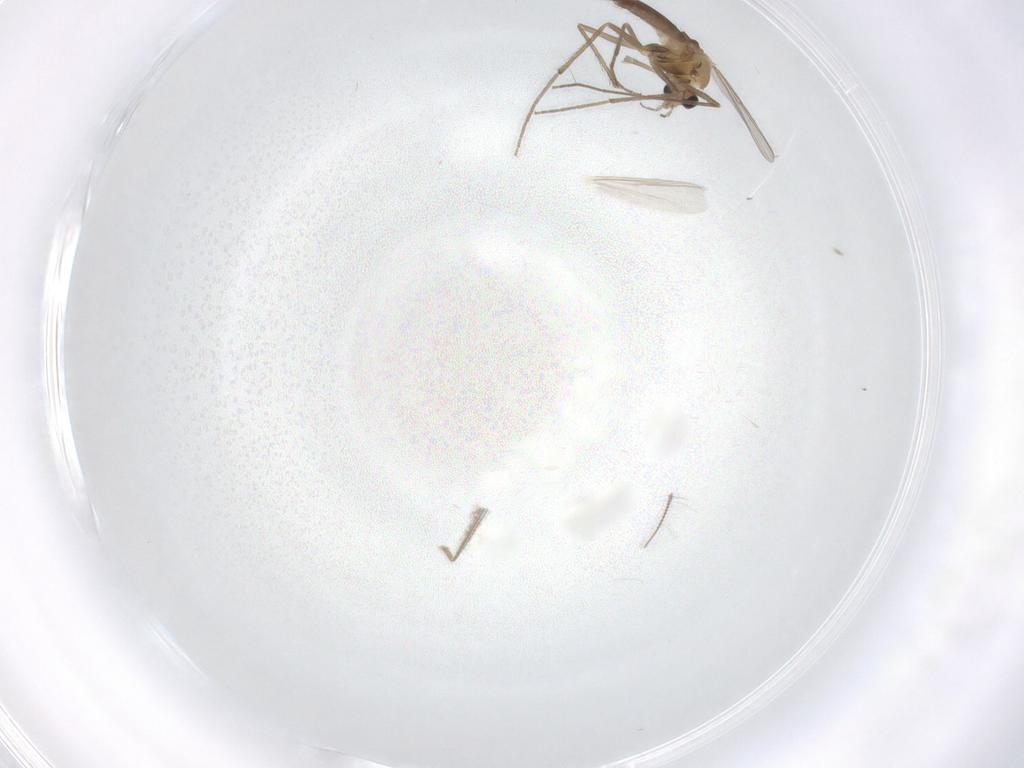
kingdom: Animalia
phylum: Arthropoda
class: Insecta
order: Diptera
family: Chironomidae
